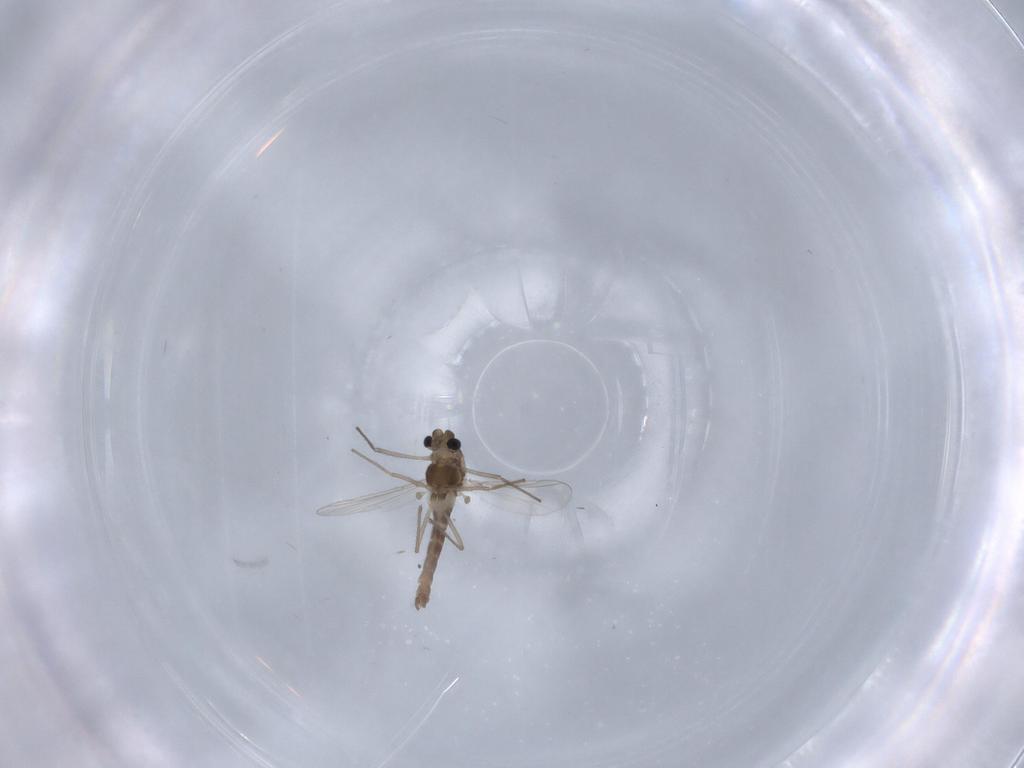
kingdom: Animalia
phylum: Arthropoda
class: Insecta
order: Diptera
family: Chironomidae
